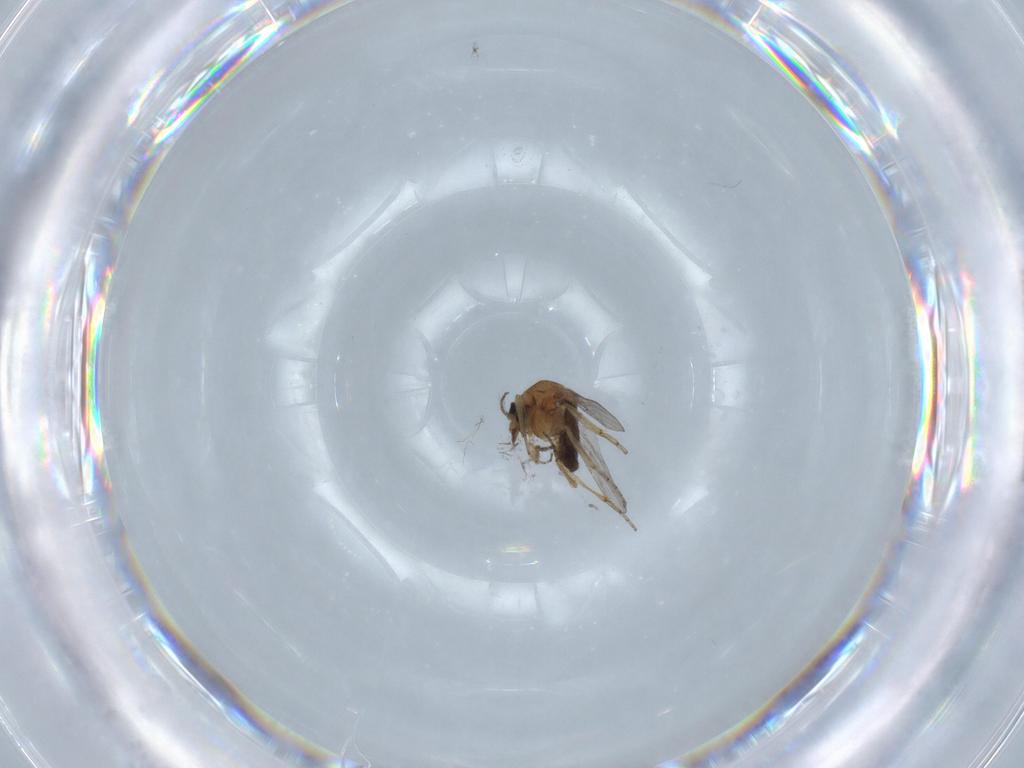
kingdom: Animalia
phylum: Arthropoda
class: Insecta
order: Diptera
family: Ceratopogonidae
